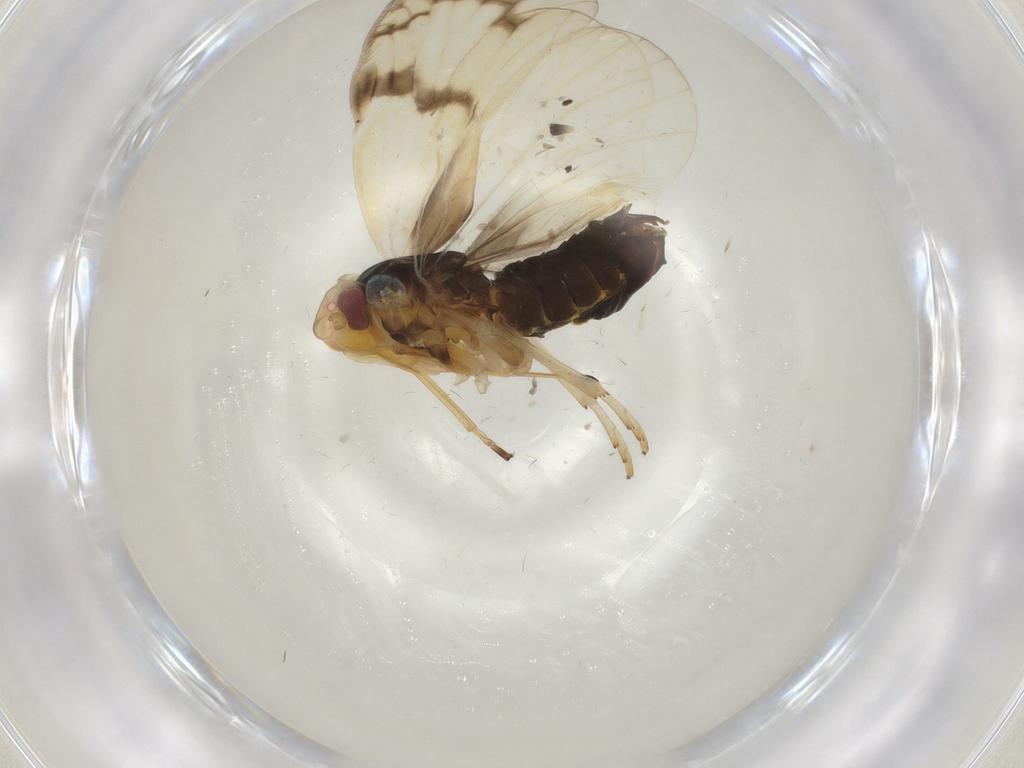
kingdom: Animalia
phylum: Arthropoda
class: Insecta
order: Hemiptera
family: Cixiidae
